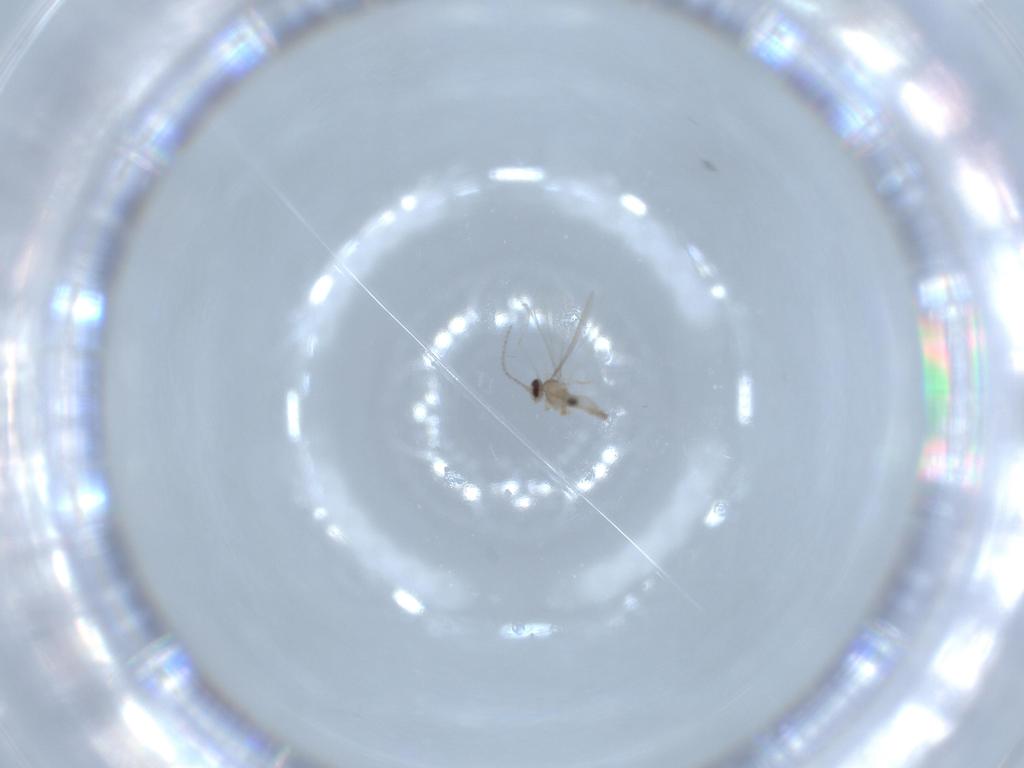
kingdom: Animalia
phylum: Arthropoda
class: Insecta
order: Diptera
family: Cecidomyiidae
